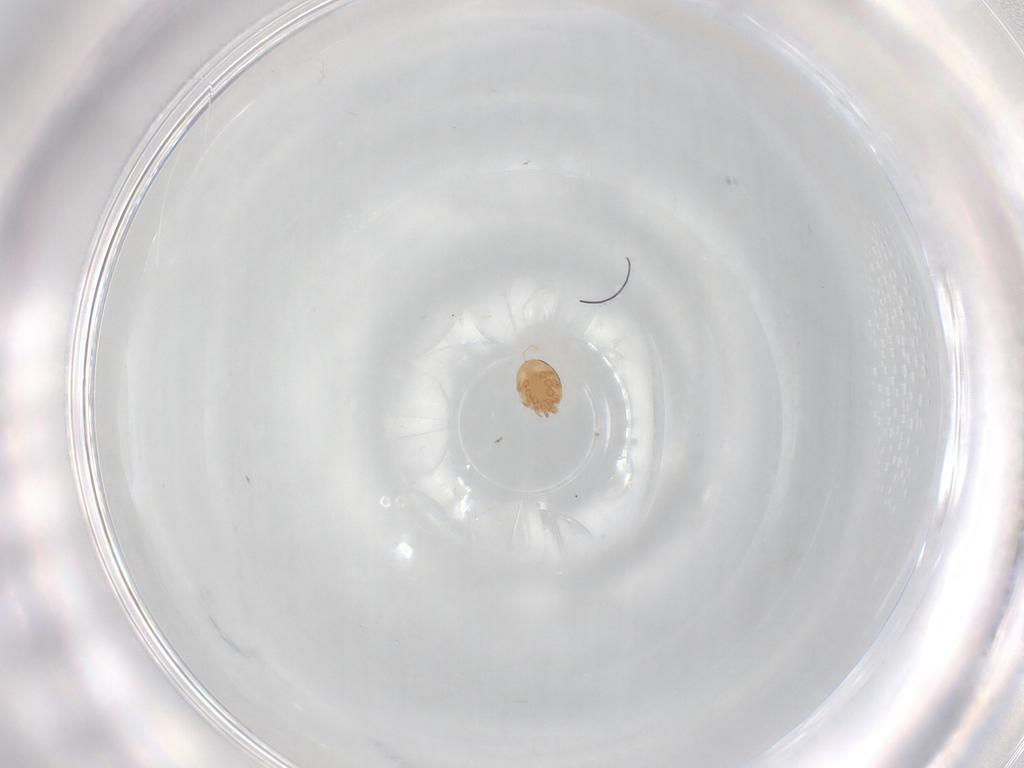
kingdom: Animalia
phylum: Arthropoda
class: Arachnida
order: Mesostigmata
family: Trematuridae
